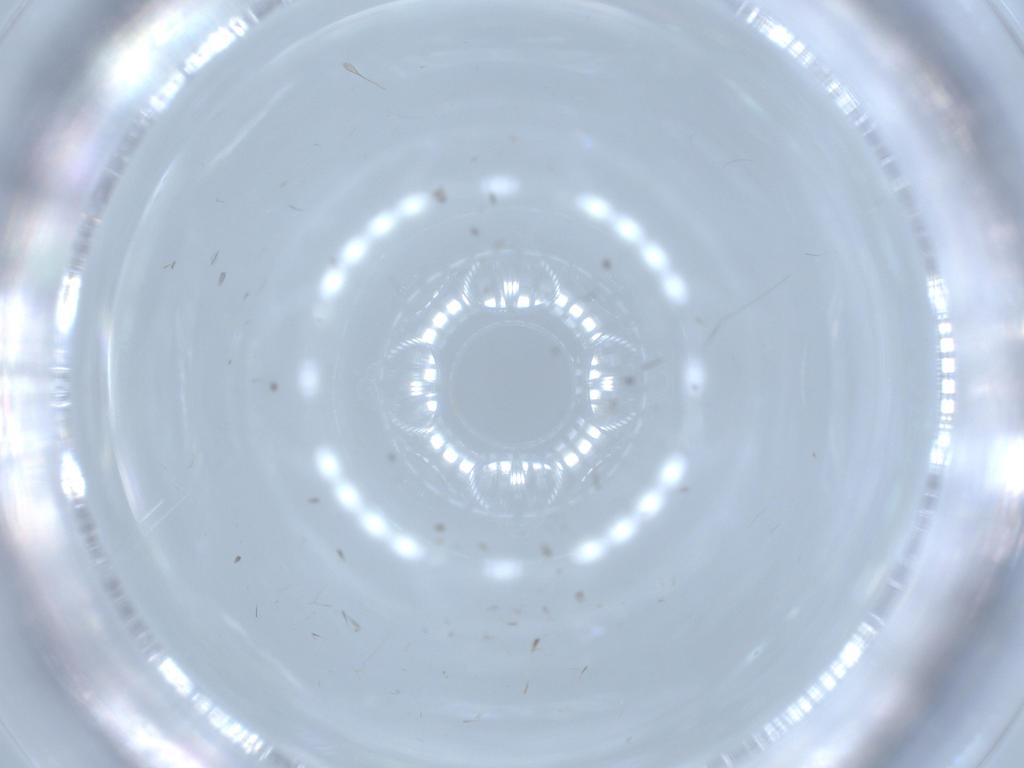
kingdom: Animalia
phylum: Arthropoda
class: Insecta
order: Diptera
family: Cecidomyiidae
